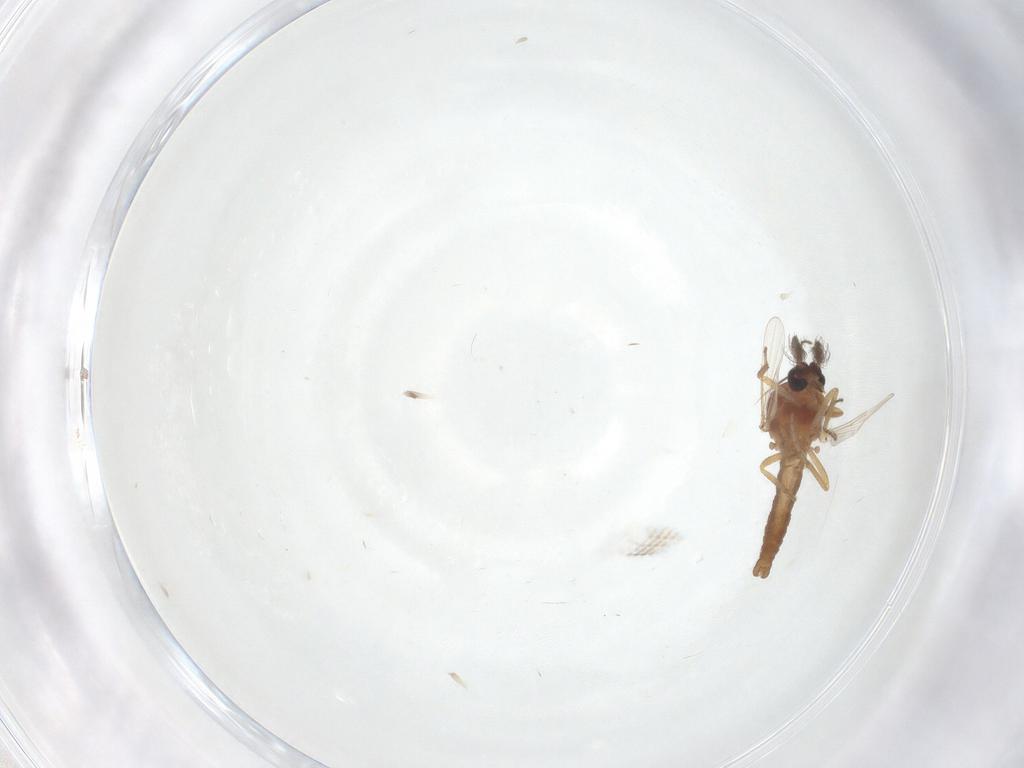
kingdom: Animalia
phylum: Arthropoda
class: Insecta
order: Diptera
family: Ceratopogonidae
